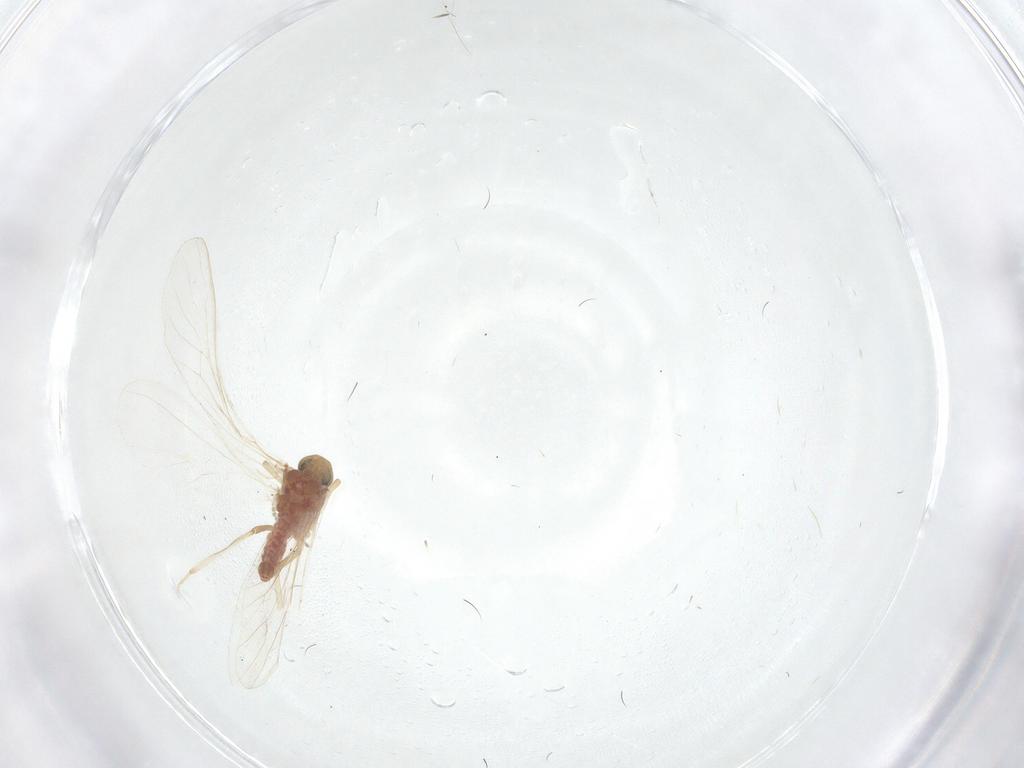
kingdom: Animalia
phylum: Arthropoda
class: Insecta
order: Neuroptera
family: Coniopterygidae
